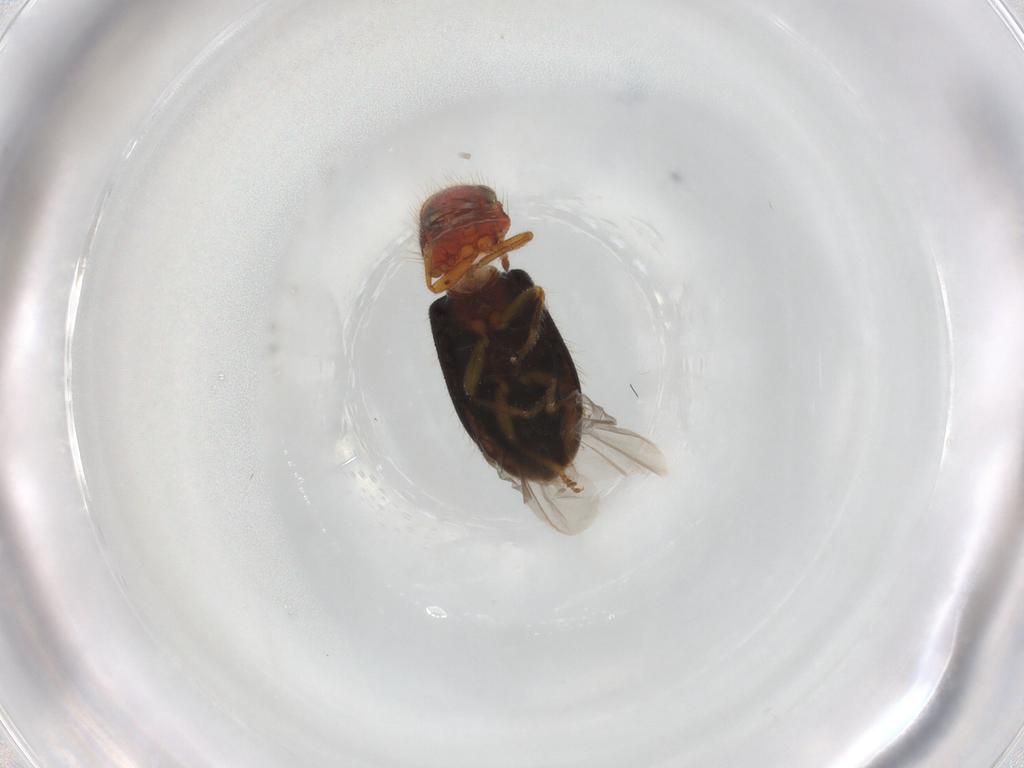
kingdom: Animalia
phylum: Arthropoda
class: Insecta
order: Coleoptera
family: Cleridae
